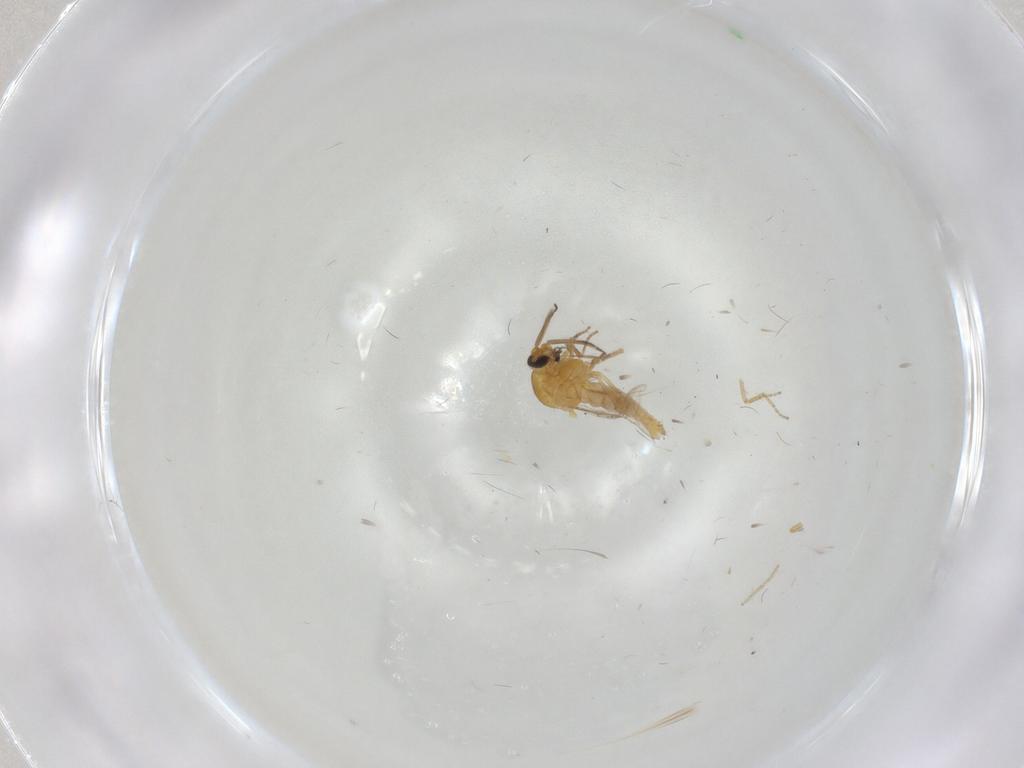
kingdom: Animalia
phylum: Arthropoda
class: Insecta
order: Diptera
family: Ceratopogonidae
